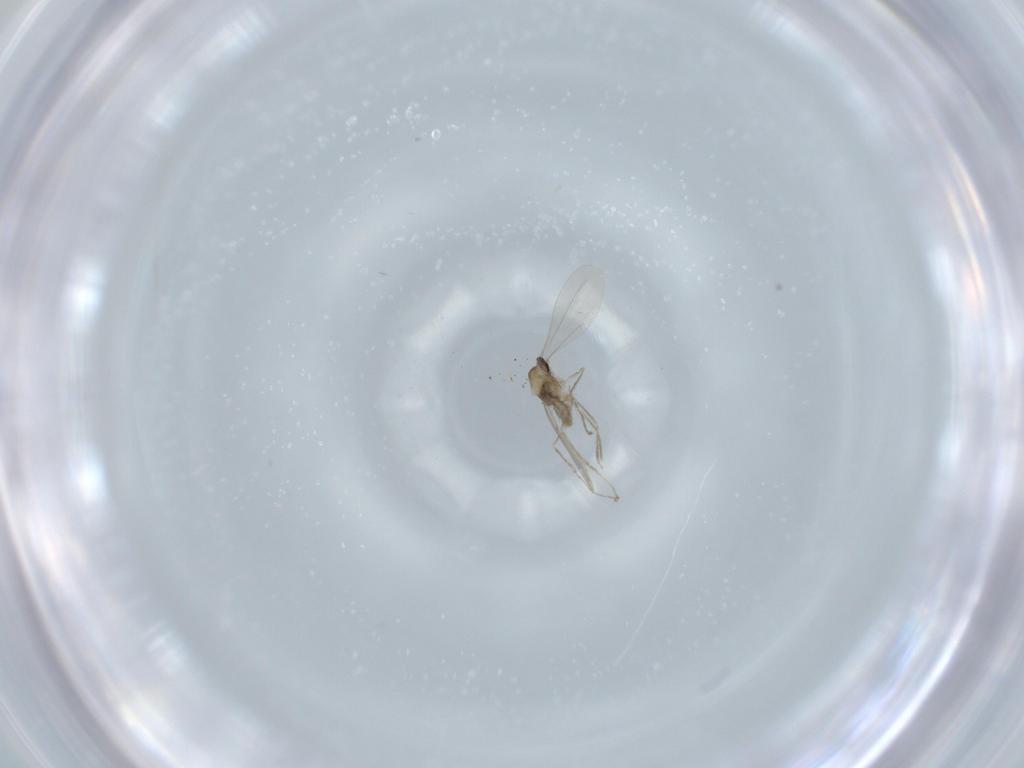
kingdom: Animalia
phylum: Arthropoda
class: Insecta
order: Diptera
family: Cecidomyiidae
